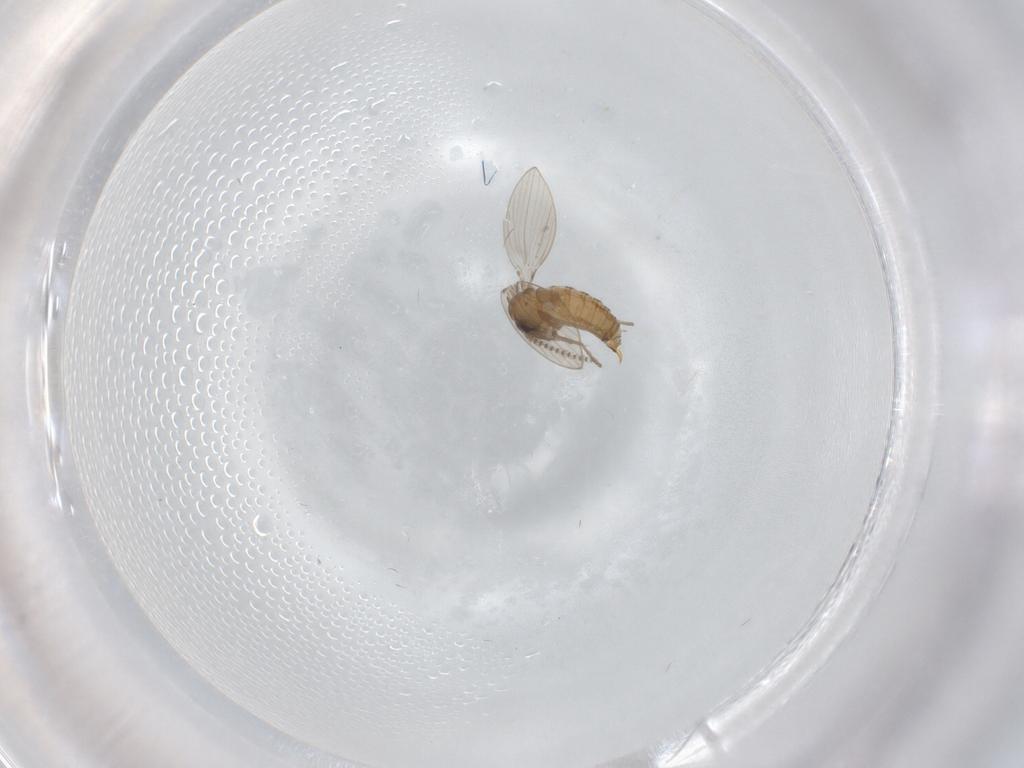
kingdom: Animalia
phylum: Arthropoda
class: Insecta
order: Diptera
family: Psychodidae
